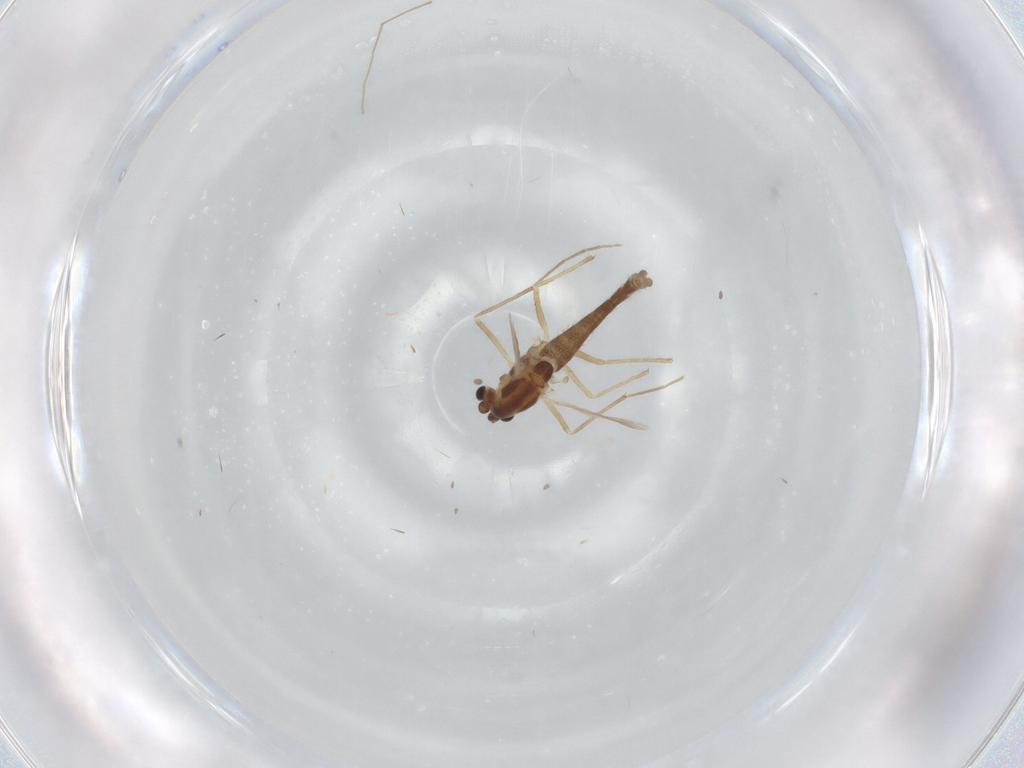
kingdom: Animalia
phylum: Arthropoda
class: Insecta
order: Diptera
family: Chironomidae
